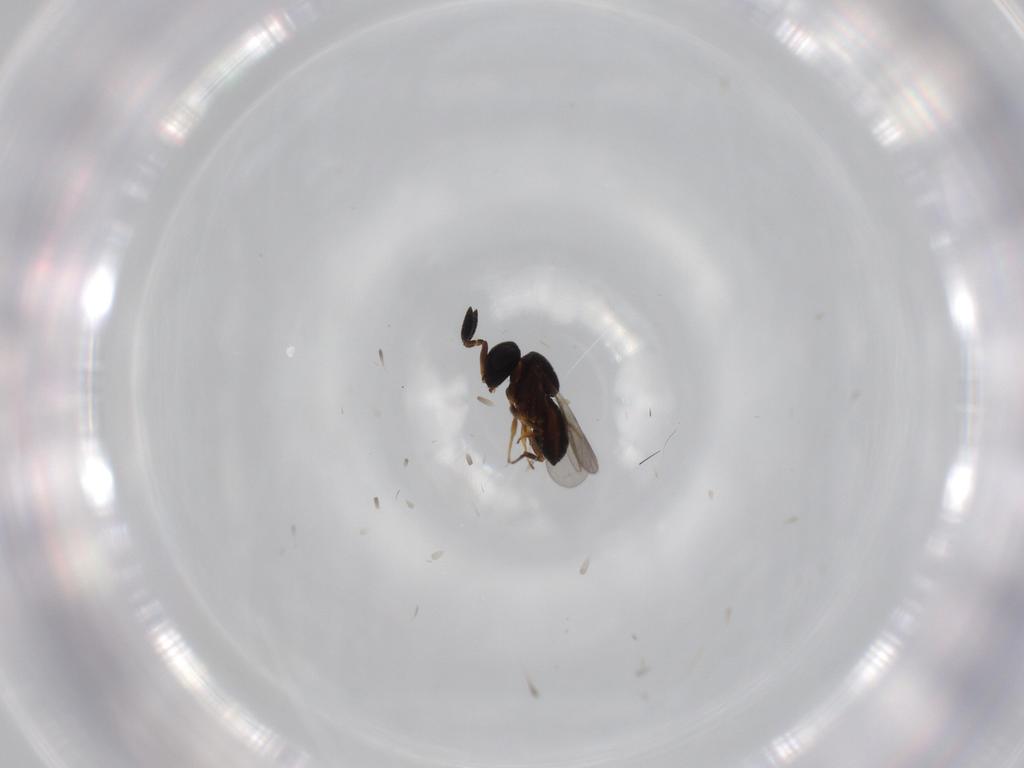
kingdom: Animalia
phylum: Arthropoda
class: Insecta
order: Hymenoptera
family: Scelionidae
